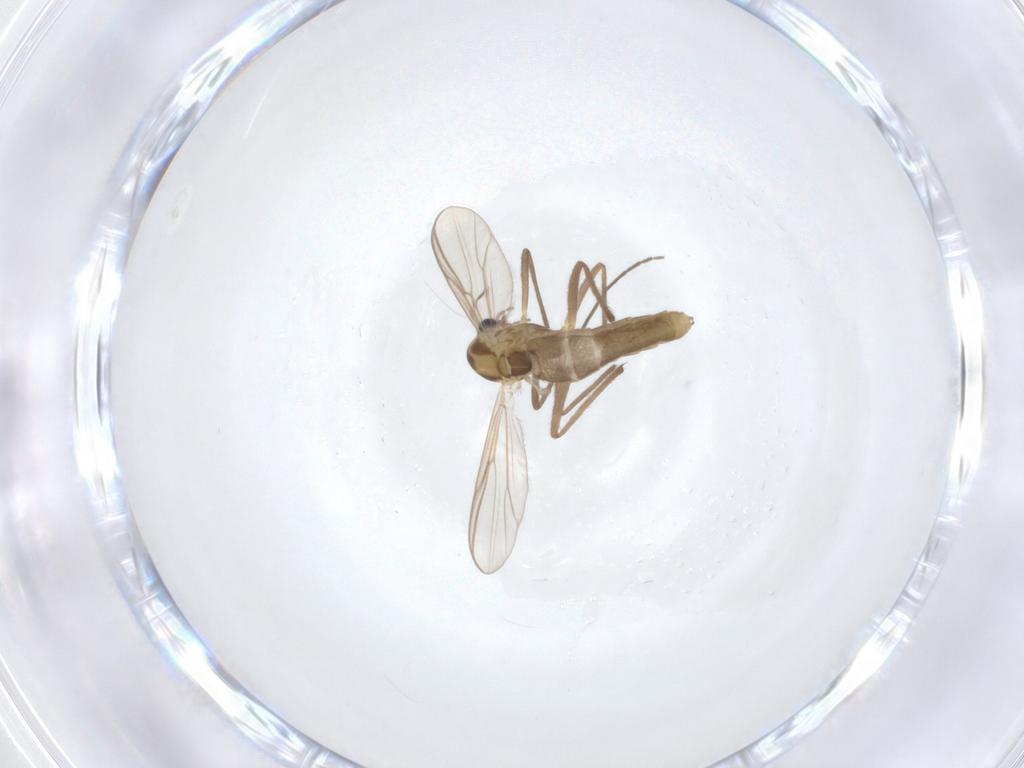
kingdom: Animalia
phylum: Arthropoda
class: Insecta
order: Diptera
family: Chironomidae
